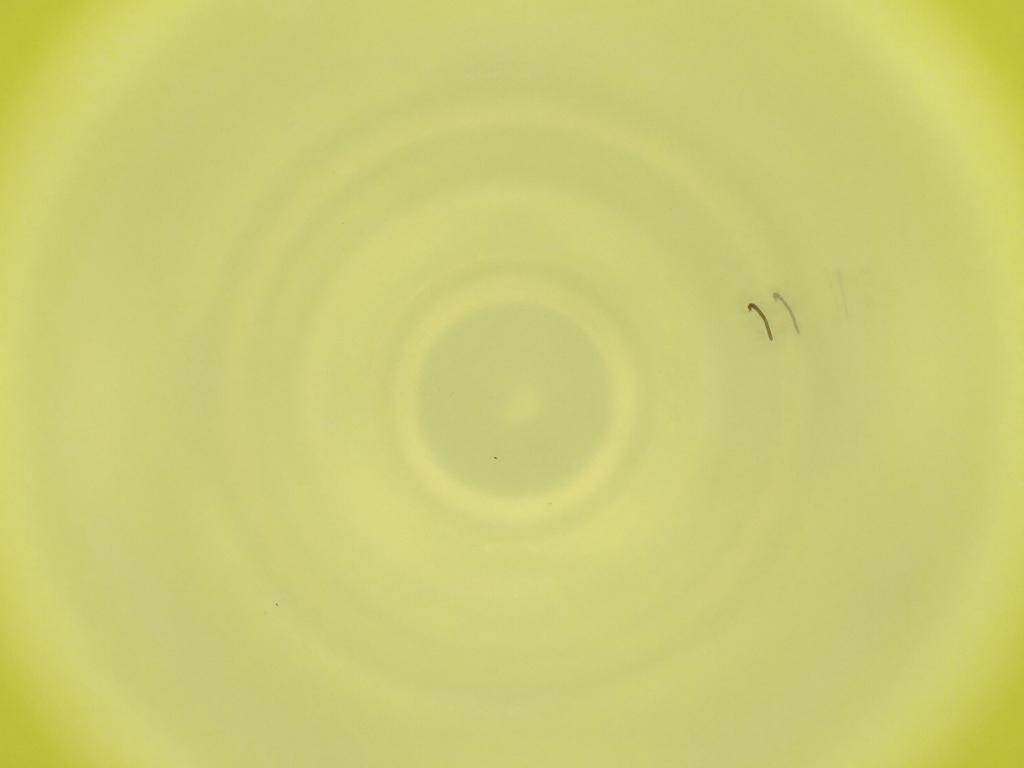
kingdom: Animalia
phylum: Arthropoda
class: Insecta
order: Diptera
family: Cecidomyiidae
